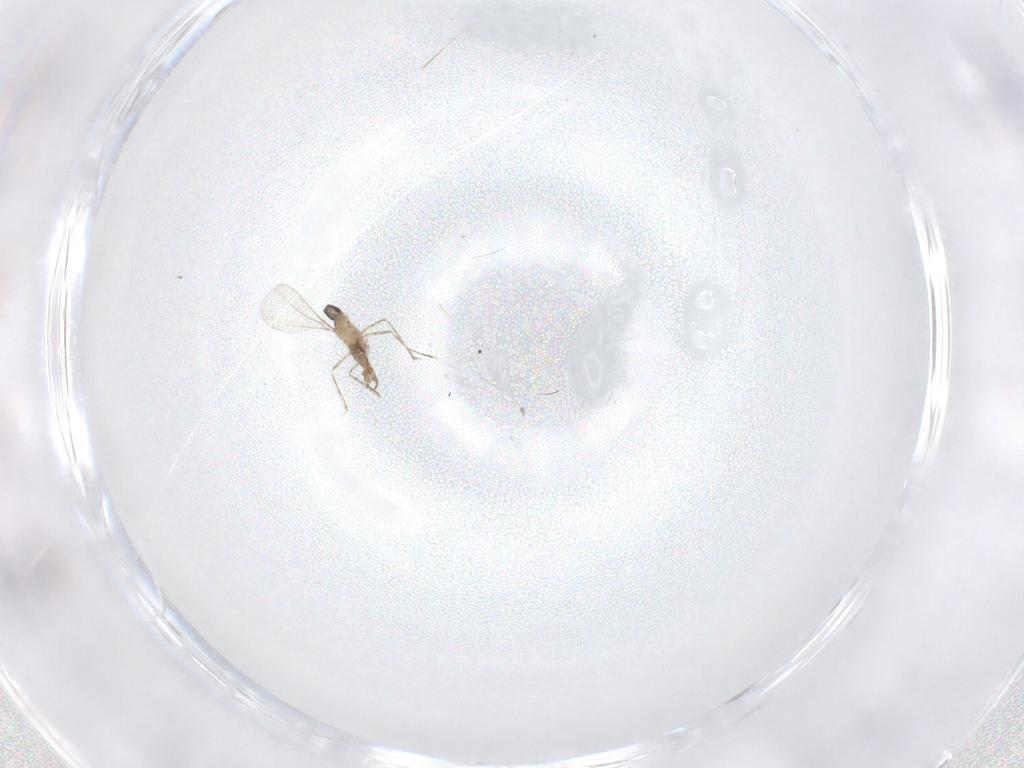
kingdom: Animalia
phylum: Arthropoda
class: Insecta
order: Diptera
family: Cecidomyiidae
